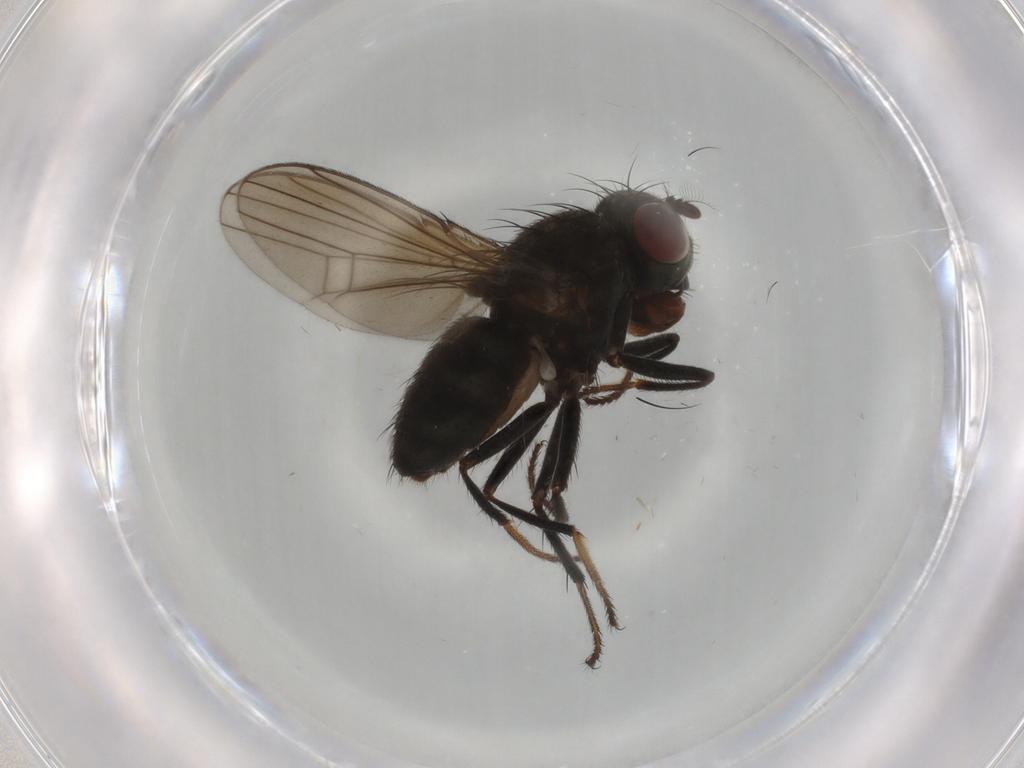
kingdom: Animalia
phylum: Arthropoda
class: Insecta
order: Diptera
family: Ephydridae
